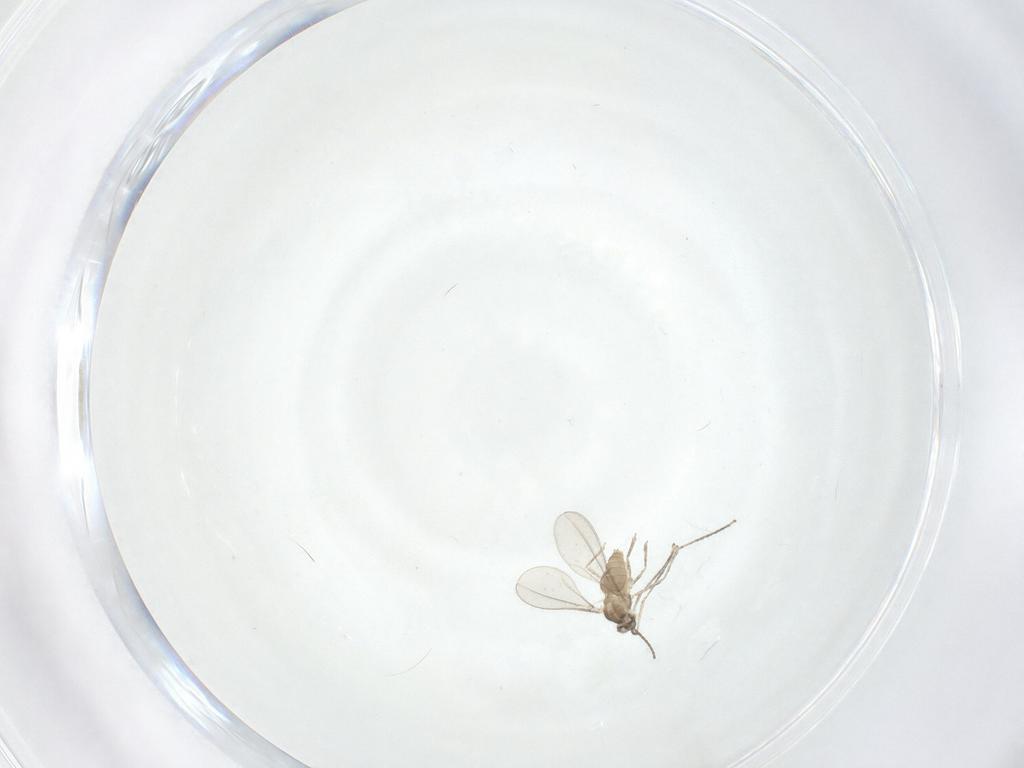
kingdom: Animalia
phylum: Arthropoda
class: Insecta
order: Diptera
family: Cecidomyiidae
